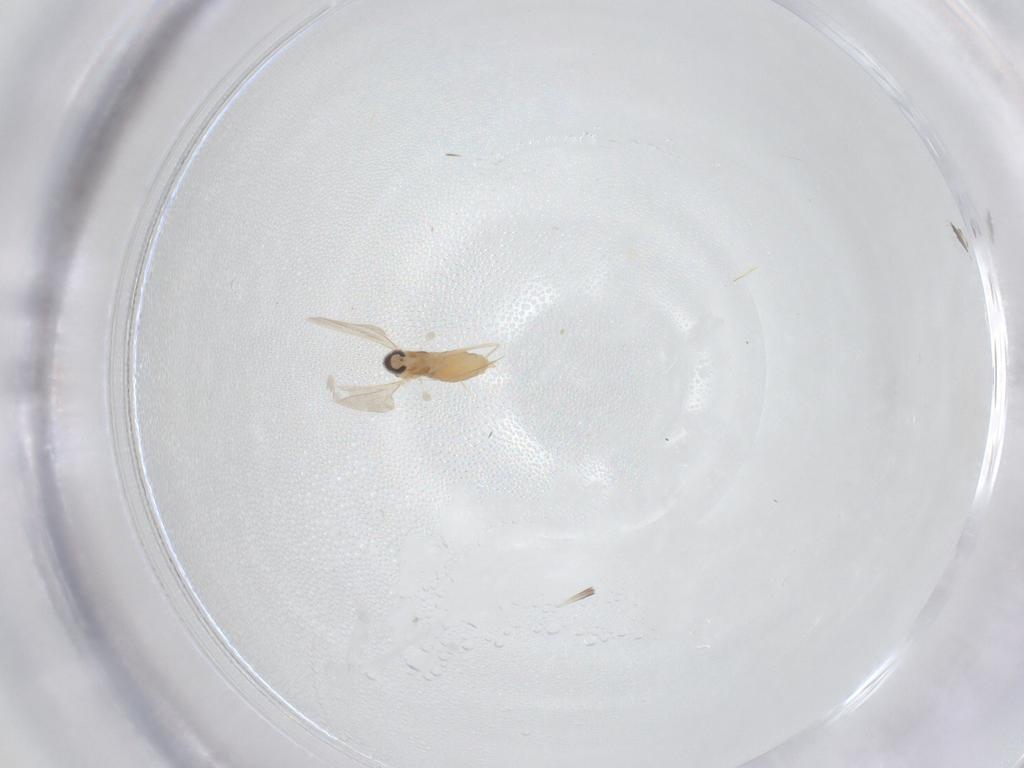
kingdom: Animalia
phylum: Arthropoda
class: Insecta
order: Diptera
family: Cecidomyiidae
